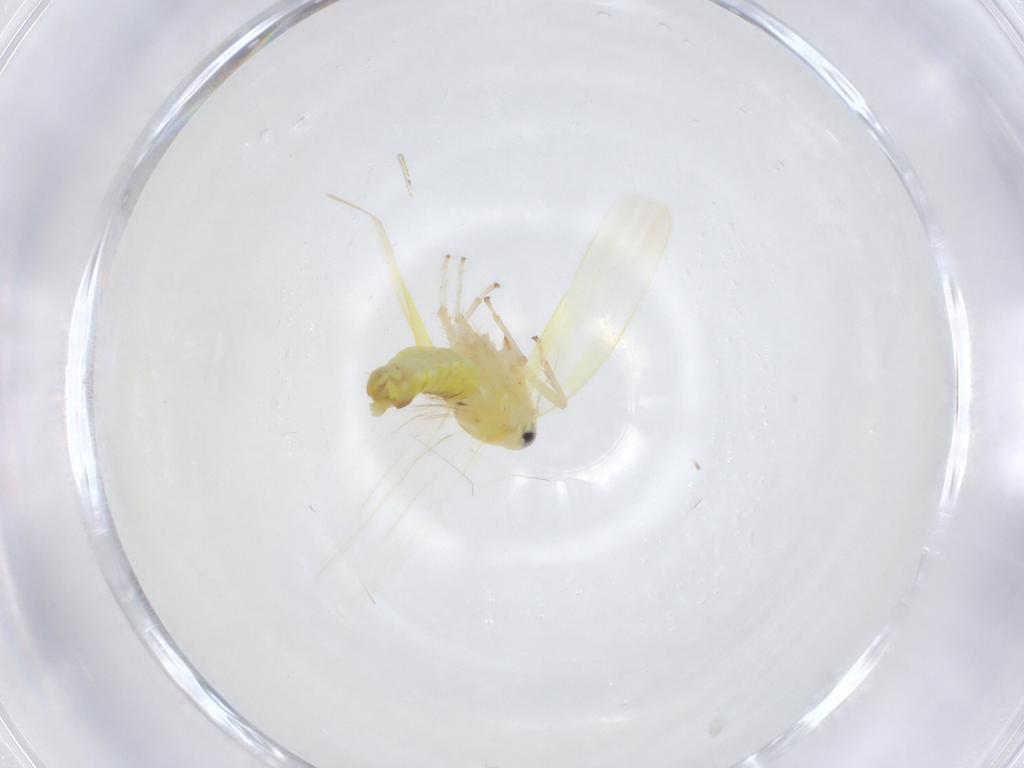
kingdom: Animalia
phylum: Arthropoda
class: Insecta
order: Hemiptera
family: Cicadellidae
